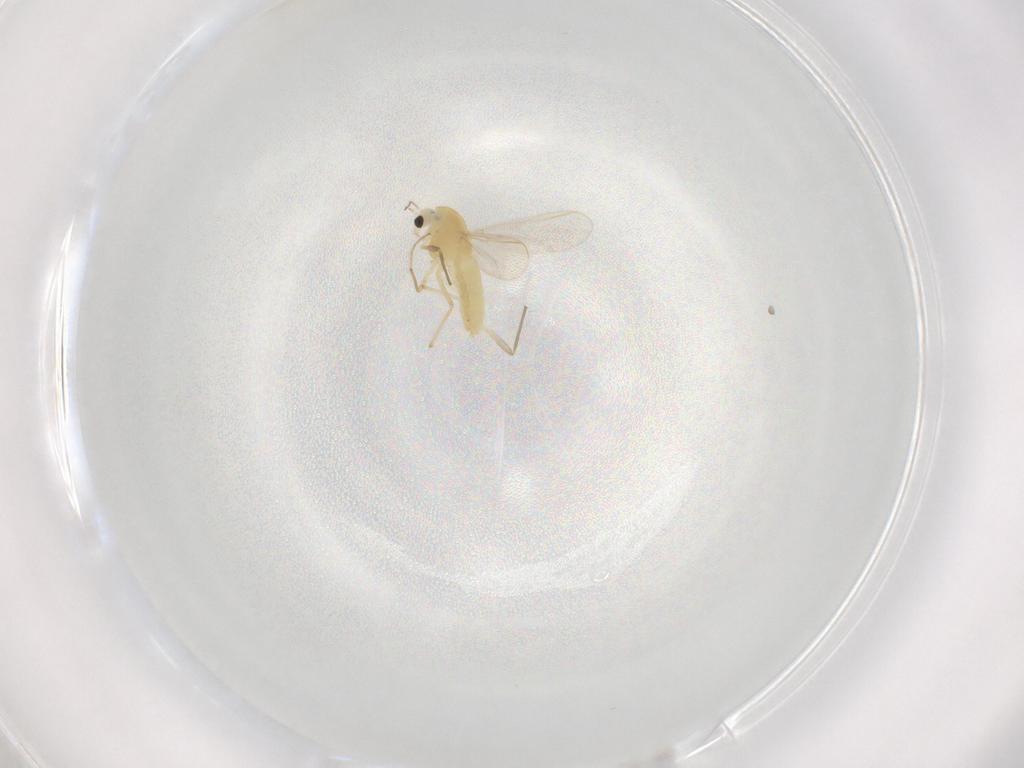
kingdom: Animalia
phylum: Arthropoda
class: Insecta
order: Diptera
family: Chironomidae
